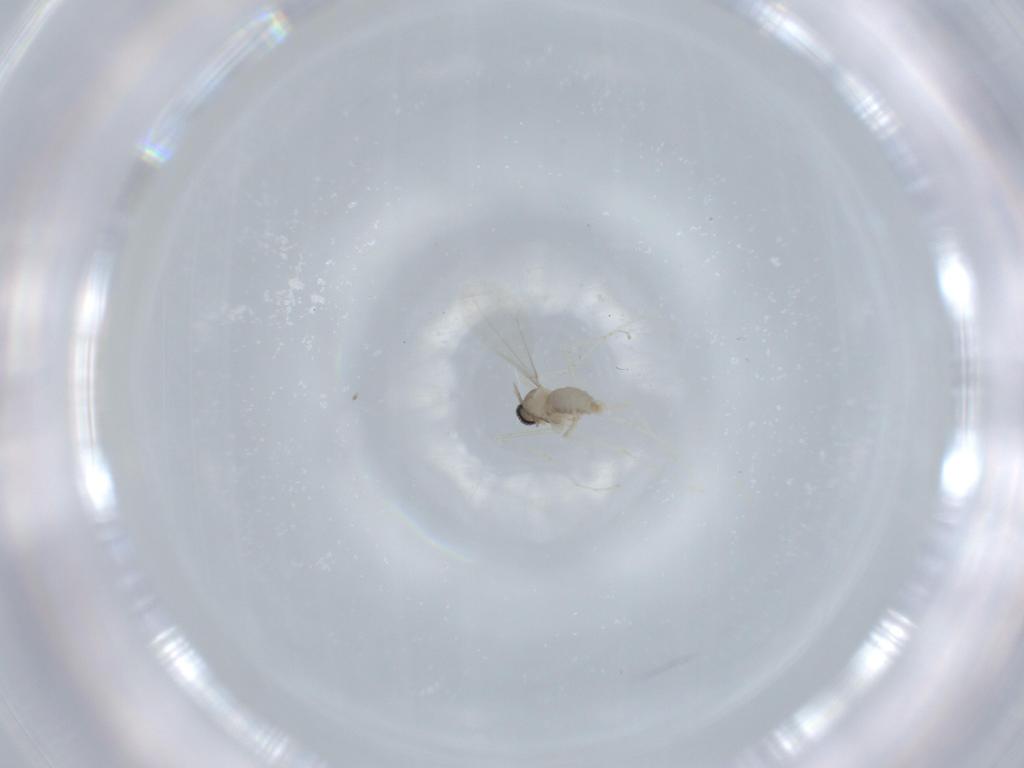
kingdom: Animalia
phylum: Arthropoda
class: Insecta
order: Diptera
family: Cecidomyiidae
